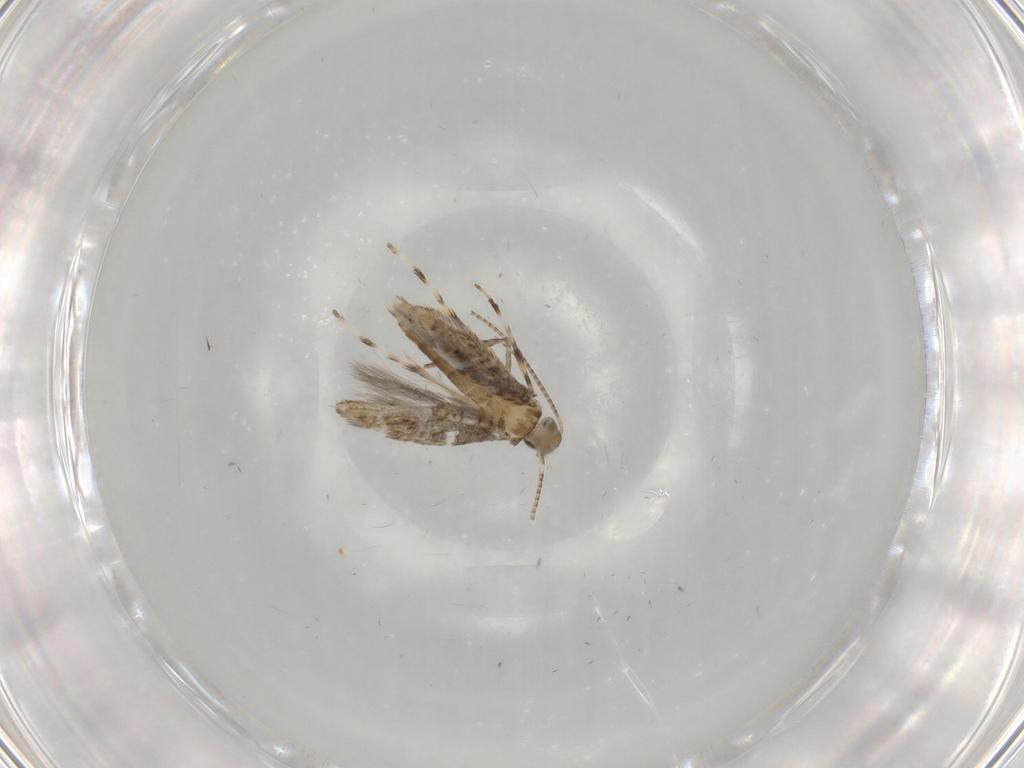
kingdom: Animalia
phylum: Arthropoda
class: Insecta
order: Lepidoptera
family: Gracillariidae
